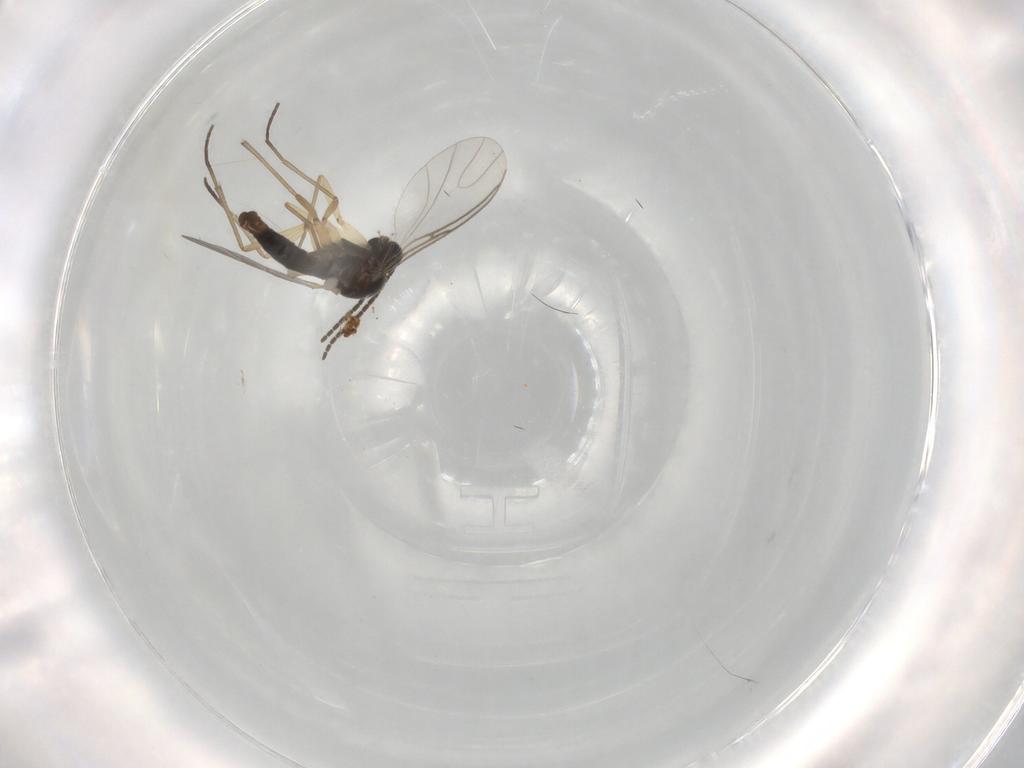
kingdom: Animalia
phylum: Arthropoda
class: Insecta
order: Diptera
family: Sciaridae
